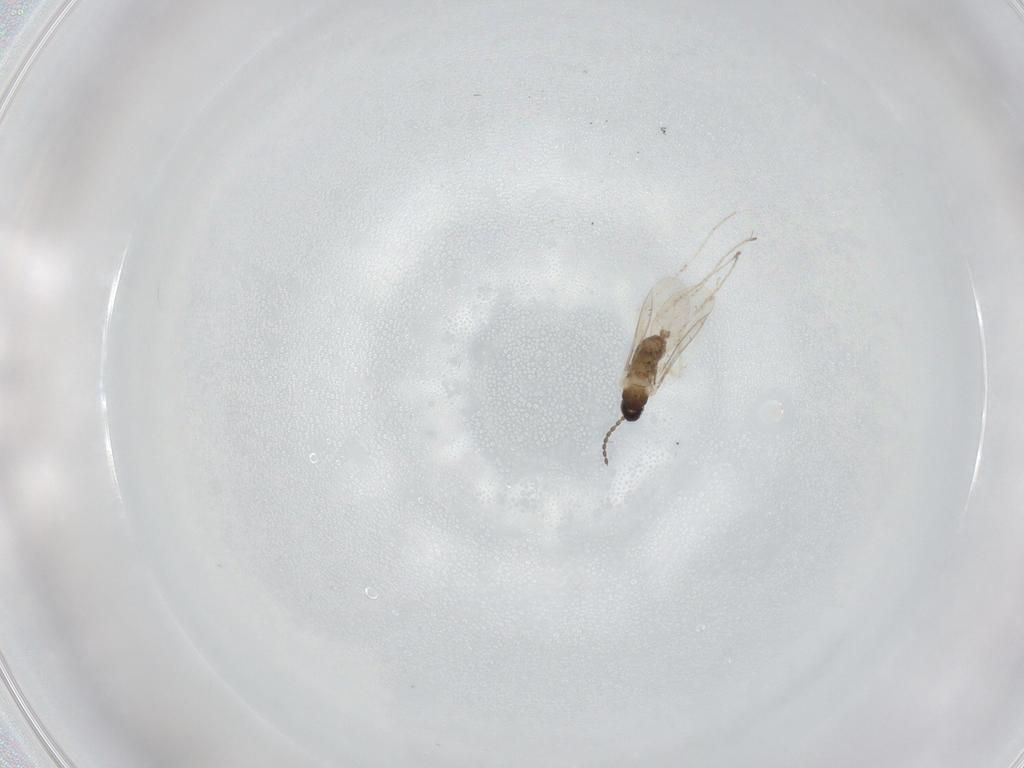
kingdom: Animalia
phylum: Arthropoda
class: Insecta
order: Diptera
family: Cecidomyiidae
